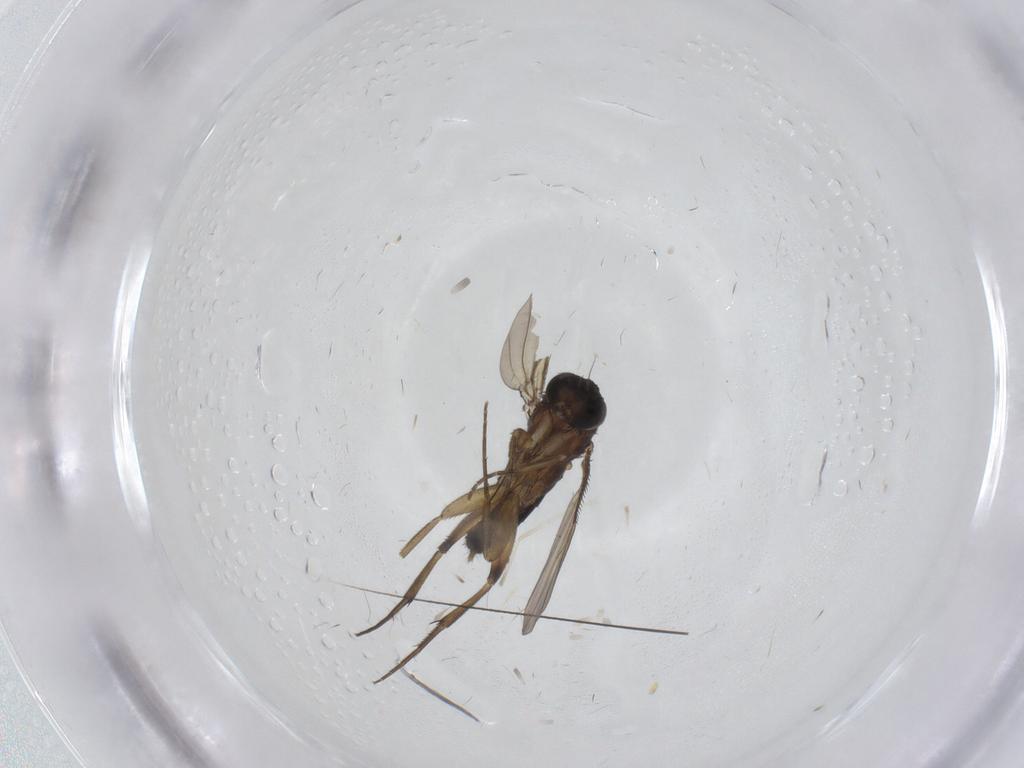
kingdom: Animalia
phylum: Arthropoda
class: Insecta
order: Diptera
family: Phoridae
